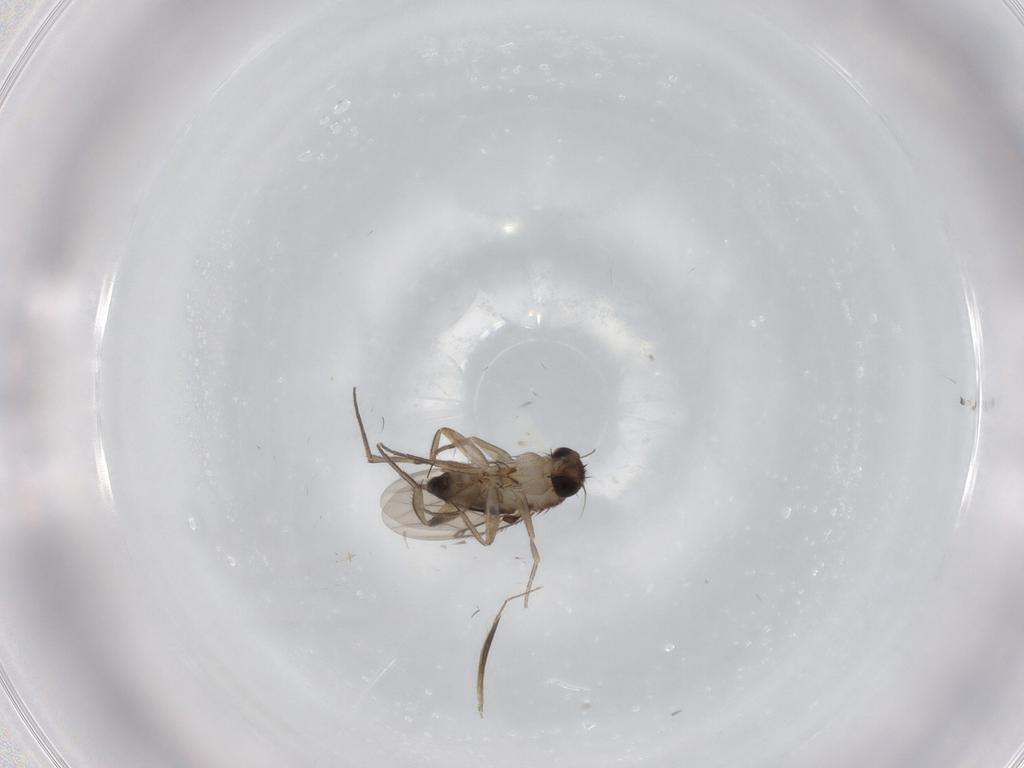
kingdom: Animalia
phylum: Arthropoda
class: Insecta
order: Diptera
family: Phoridae
